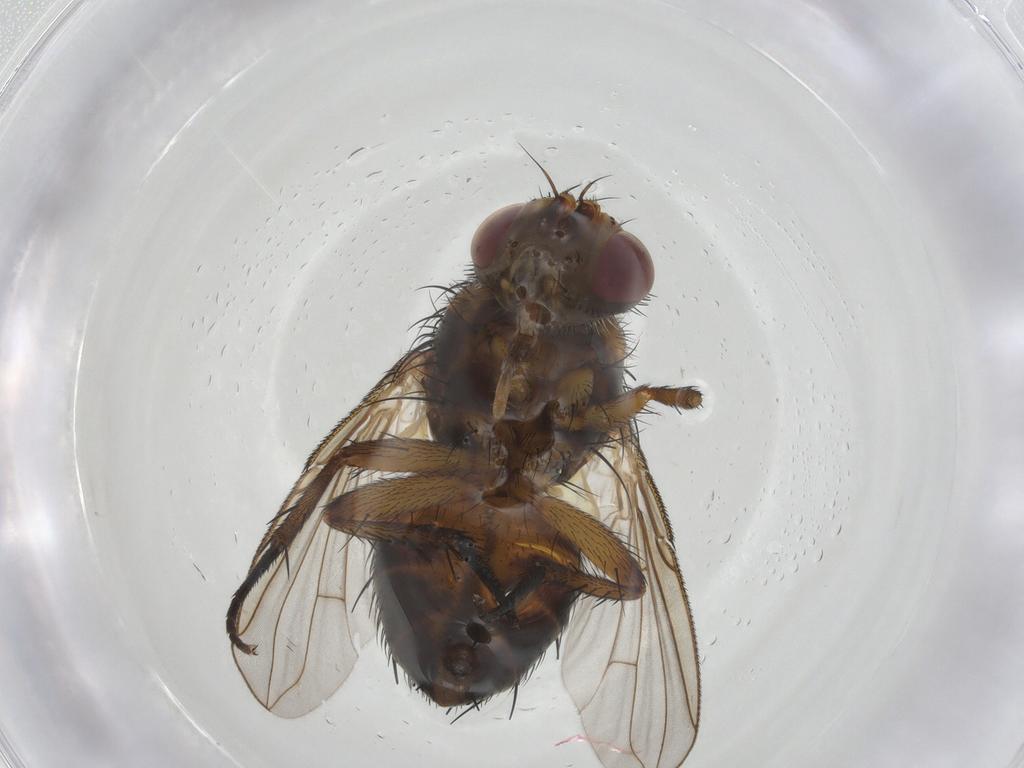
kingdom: Animalia
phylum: Arthropoda
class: Insecta
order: Diptera
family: Tachinidae
